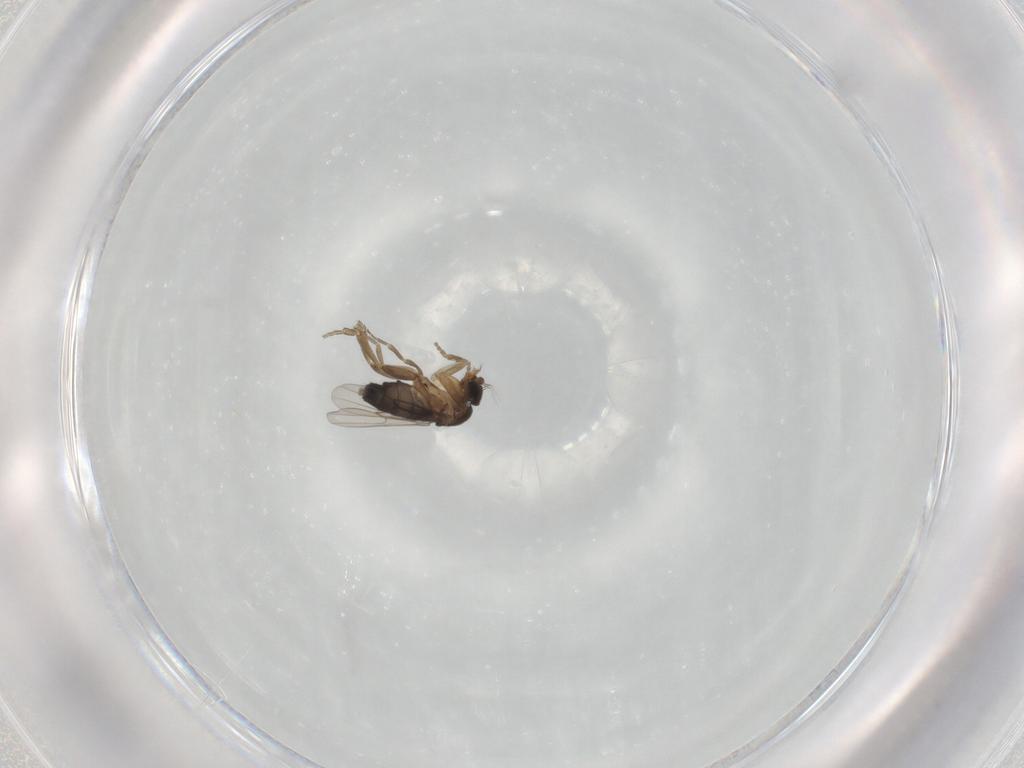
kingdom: Animalia
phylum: Arthropoda
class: Insecta
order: Diptera
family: Phoridae
